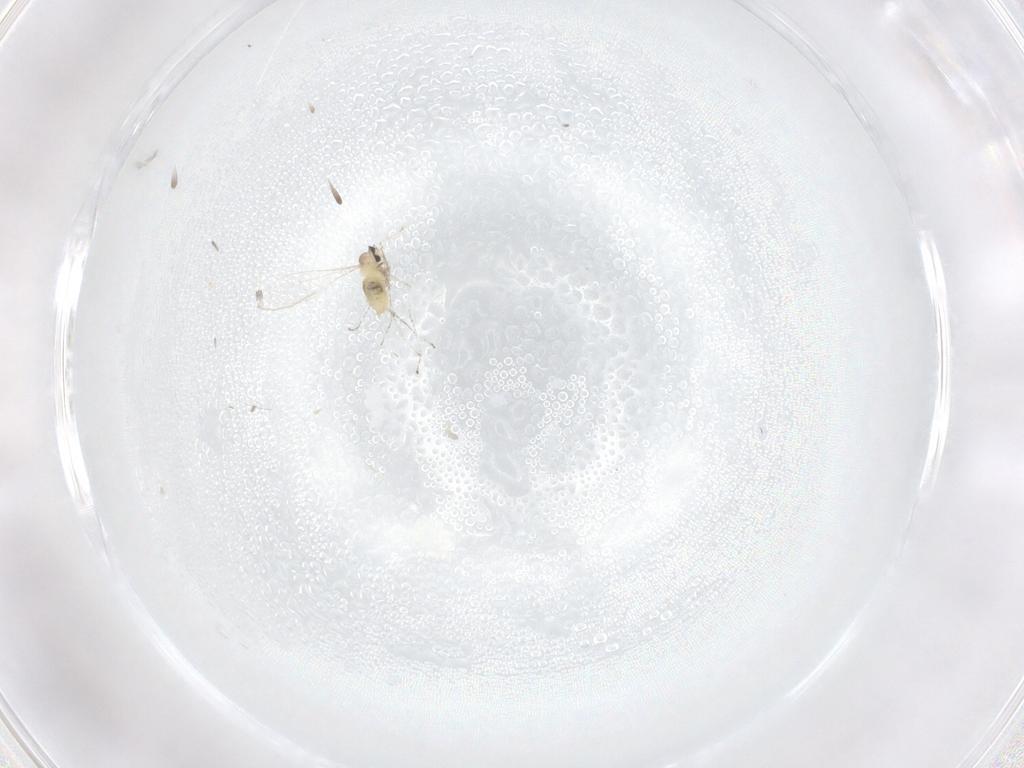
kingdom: Animalia
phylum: Arthropoda
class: Insecta
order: Diptera
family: Cecidomyiidae
